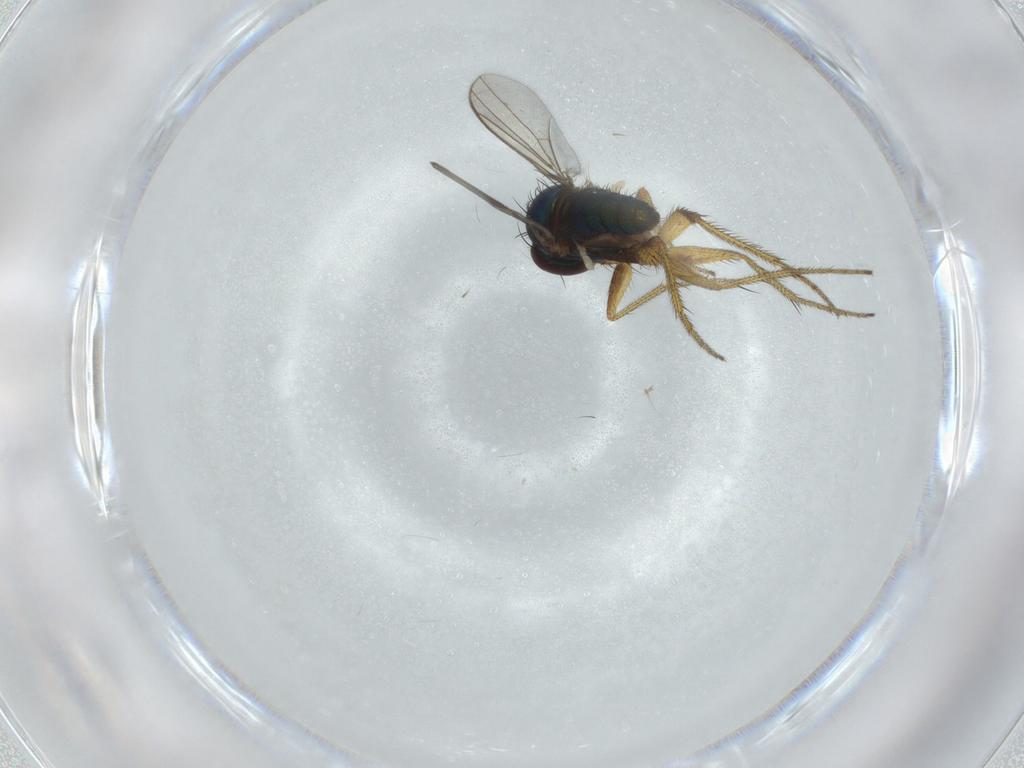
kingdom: Animalia
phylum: Arthropoda
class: Insecta
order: Diptera
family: Dolichopodidae
